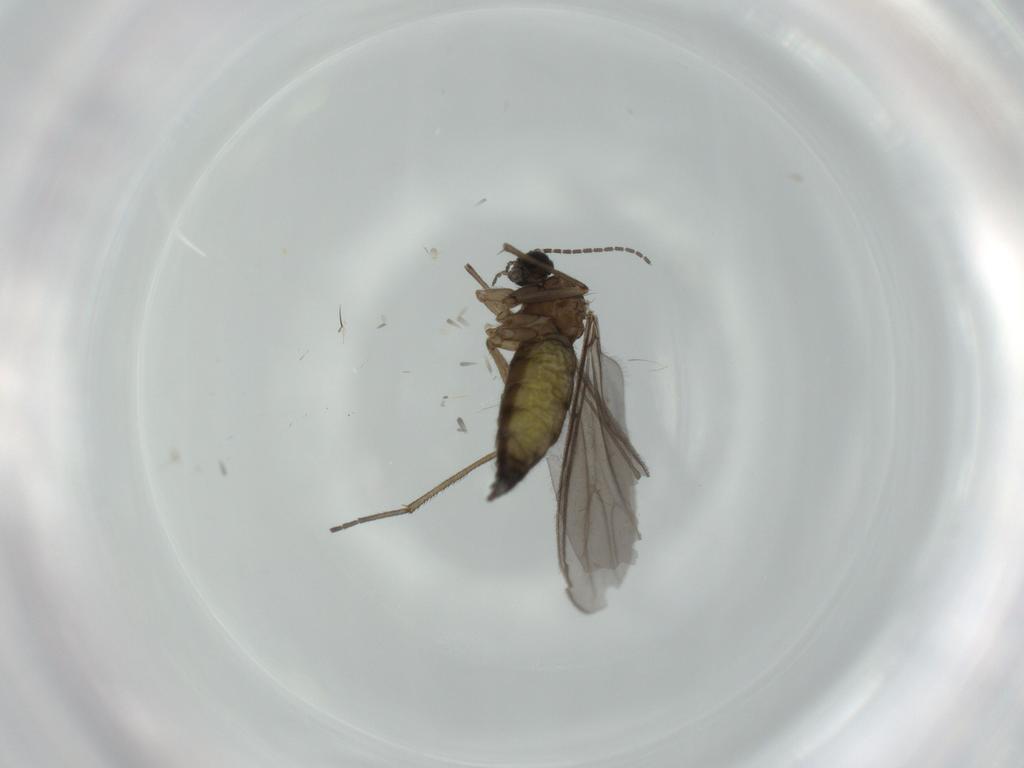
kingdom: Animalia
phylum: Arthropoda
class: Insecta
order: Diptera
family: Sciaridae
